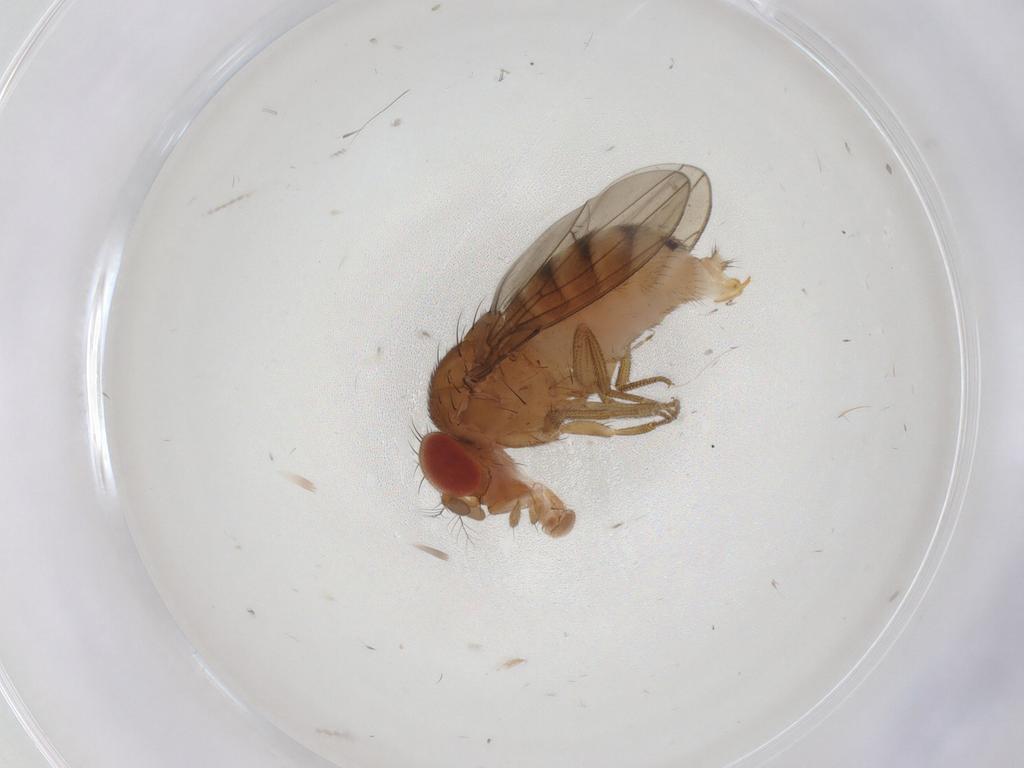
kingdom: Animalia
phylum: Arthropoda
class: Insecta
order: Diptera
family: Drosophilidae
